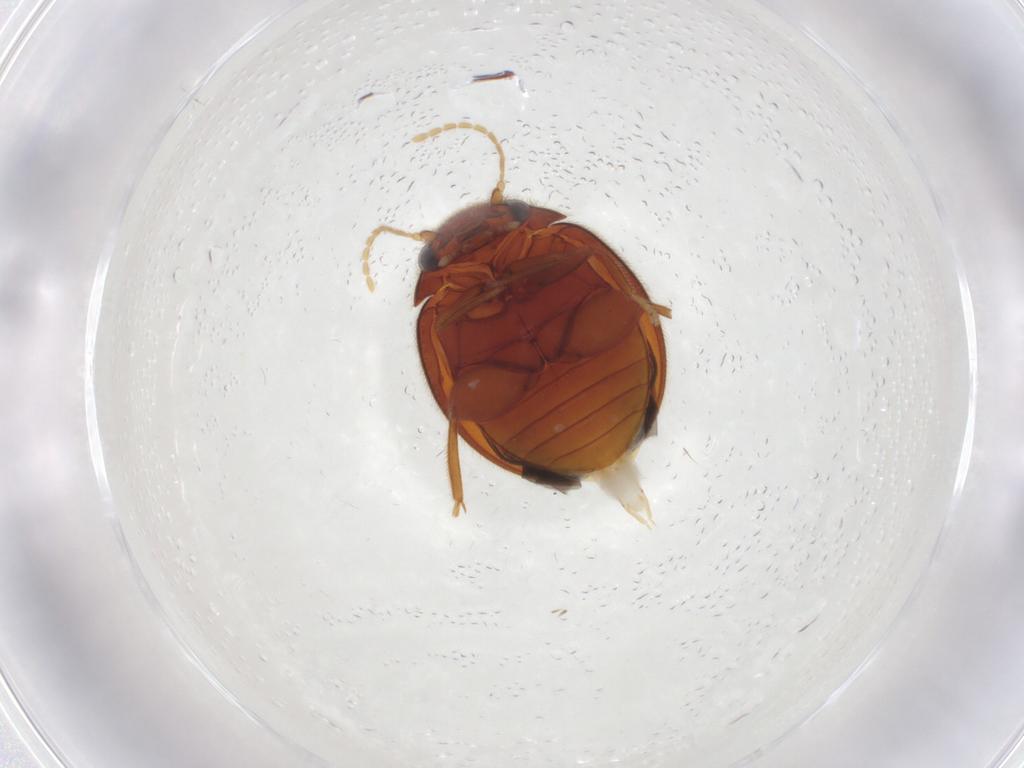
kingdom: Animalia
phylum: Arthropoda
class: Insecta
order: Coleoptera
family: Scirtidae
